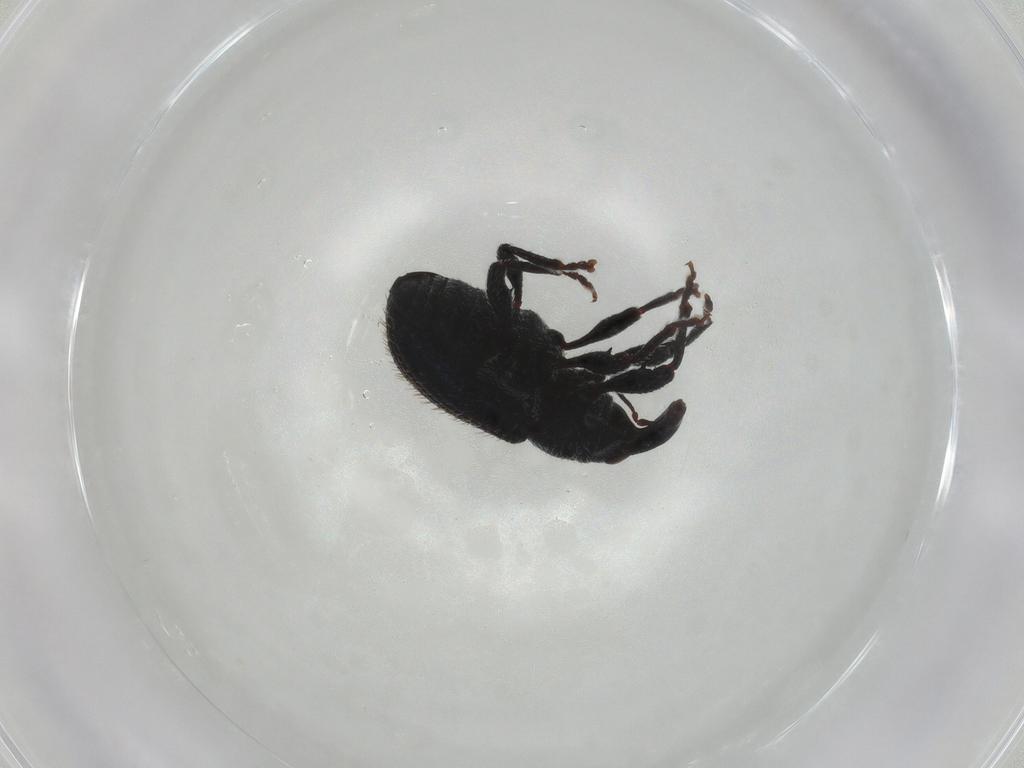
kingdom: Animalia
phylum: Arthropoda
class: Insecta
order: Coleoptera
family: Curculionidae
